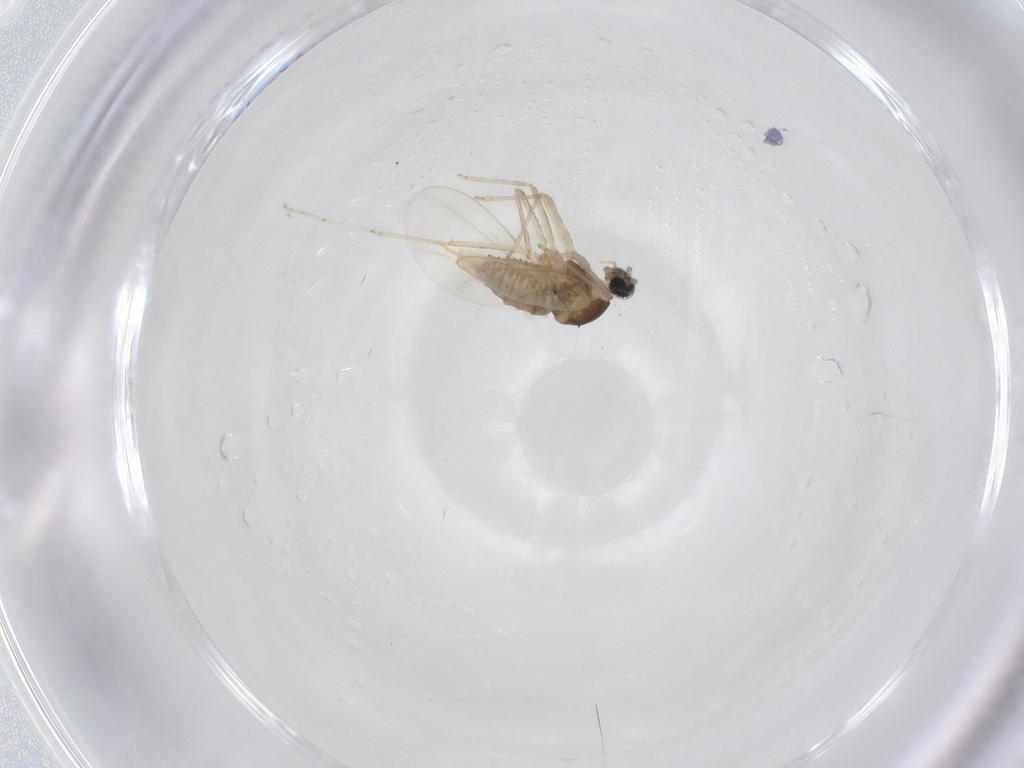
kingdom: Animalia
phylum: Arthropoda
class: Insecta
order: Diptera
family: Cecidomyiidae
